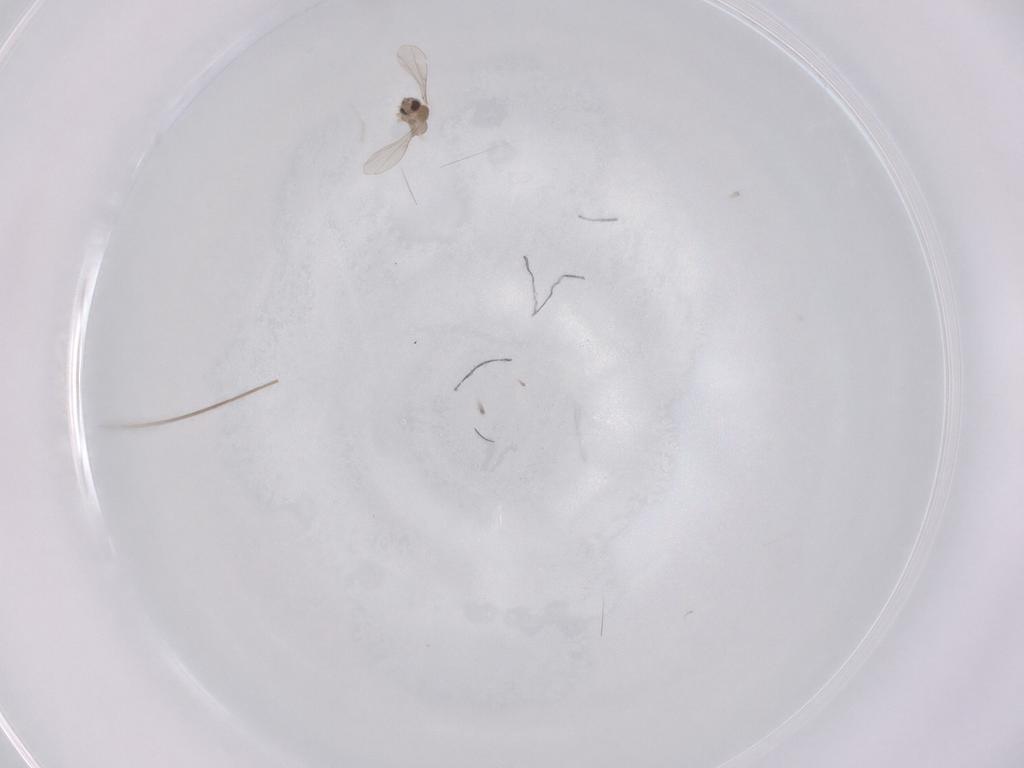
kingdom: Animalia
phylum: Arthropoda
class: Insecta
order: Diptera
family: Cecidomyiidae
